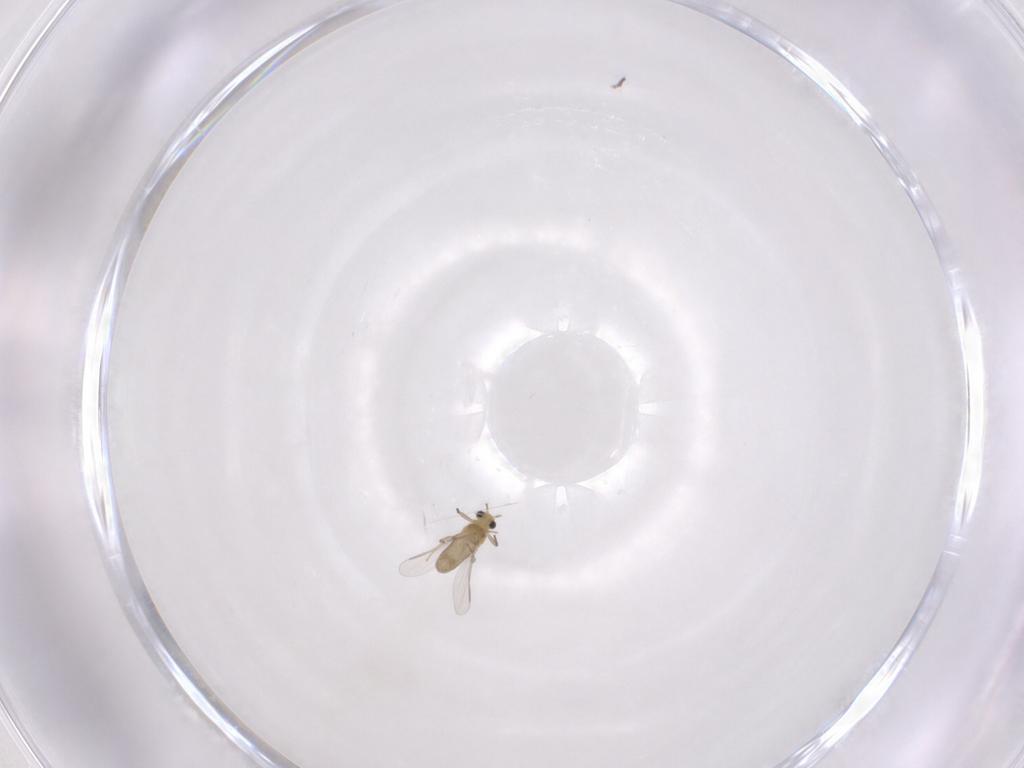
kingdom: Animalia
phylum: Arthropoda
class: Insecta
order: Diptera
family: Chironomidae
